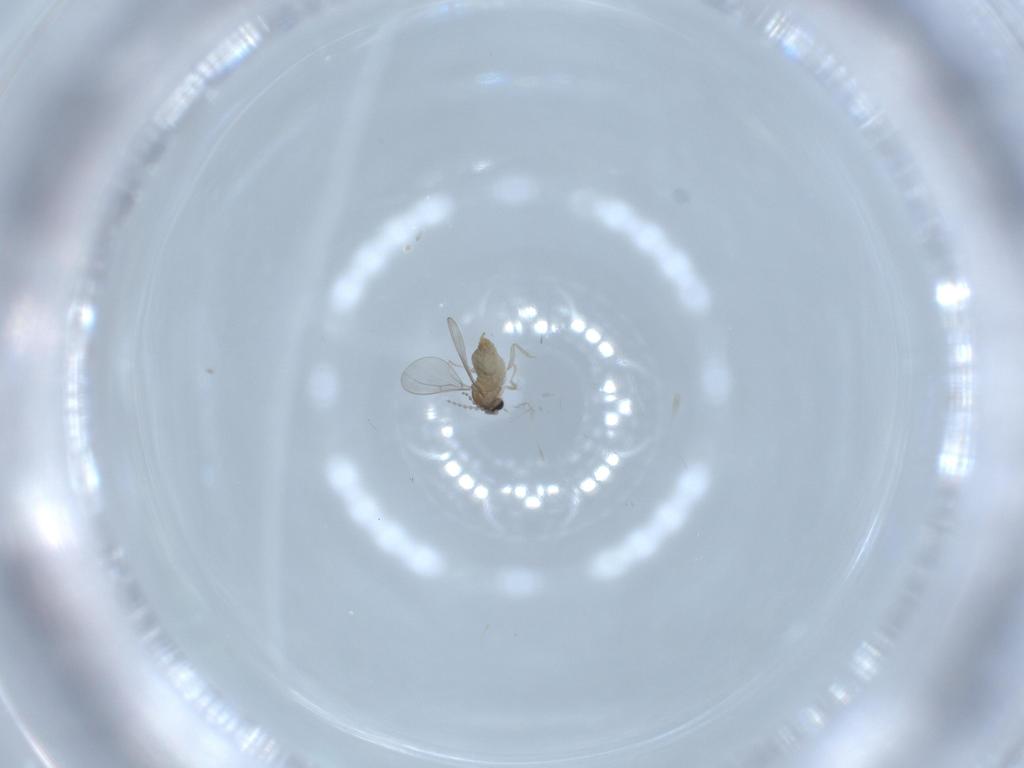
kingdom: Animalia
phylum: Arthropoda
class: Insecta
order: Diptera
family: Cecidomyiidae
